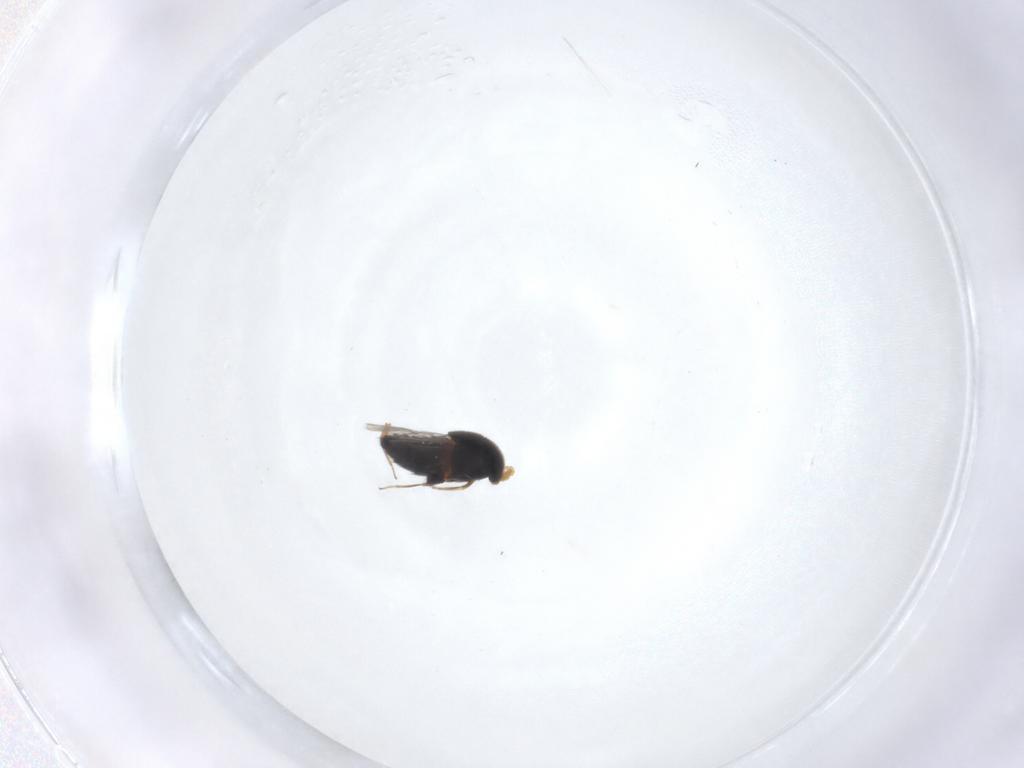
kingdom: Animalia
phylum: Arthropoda
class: Insecta
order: Coleoptera
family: Staphylinidae
